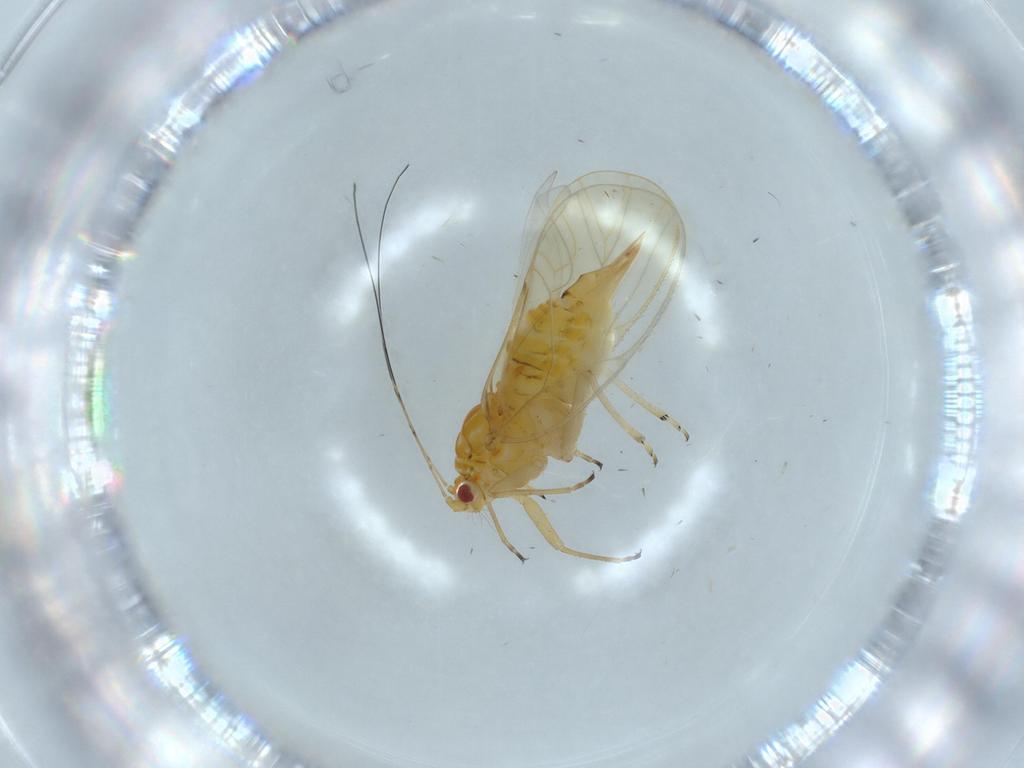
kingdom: Animalia
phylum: Arthropoda
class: Insecta
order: Hemiptera
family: Psyllidae
